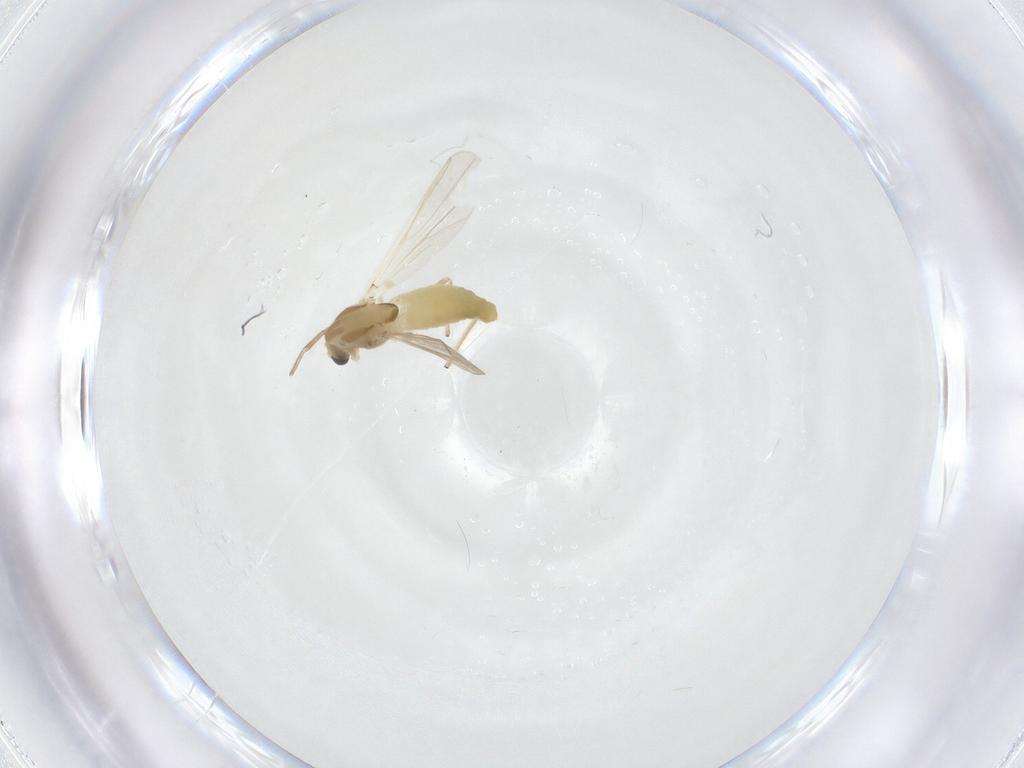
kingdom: Animalia
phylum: Arthropoda
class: Insecta
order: Diptera
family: Chironomidae
